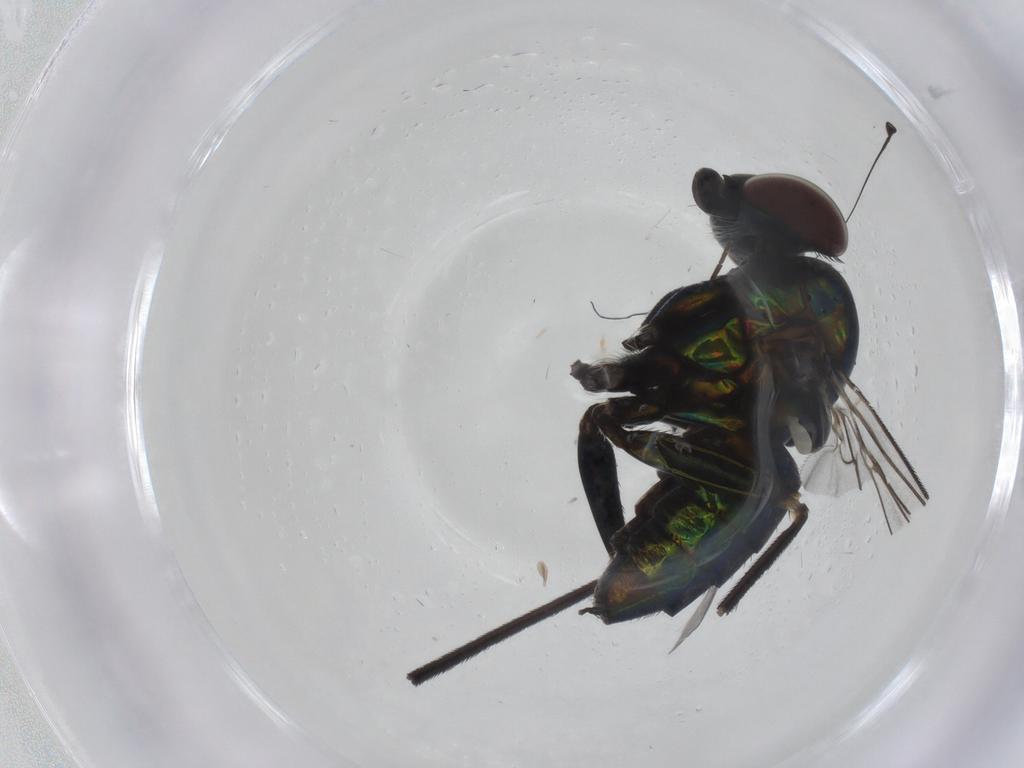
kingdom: Animalia
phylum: Arthropoda
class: Insecta
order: Diptera
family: Dolichopodidae
